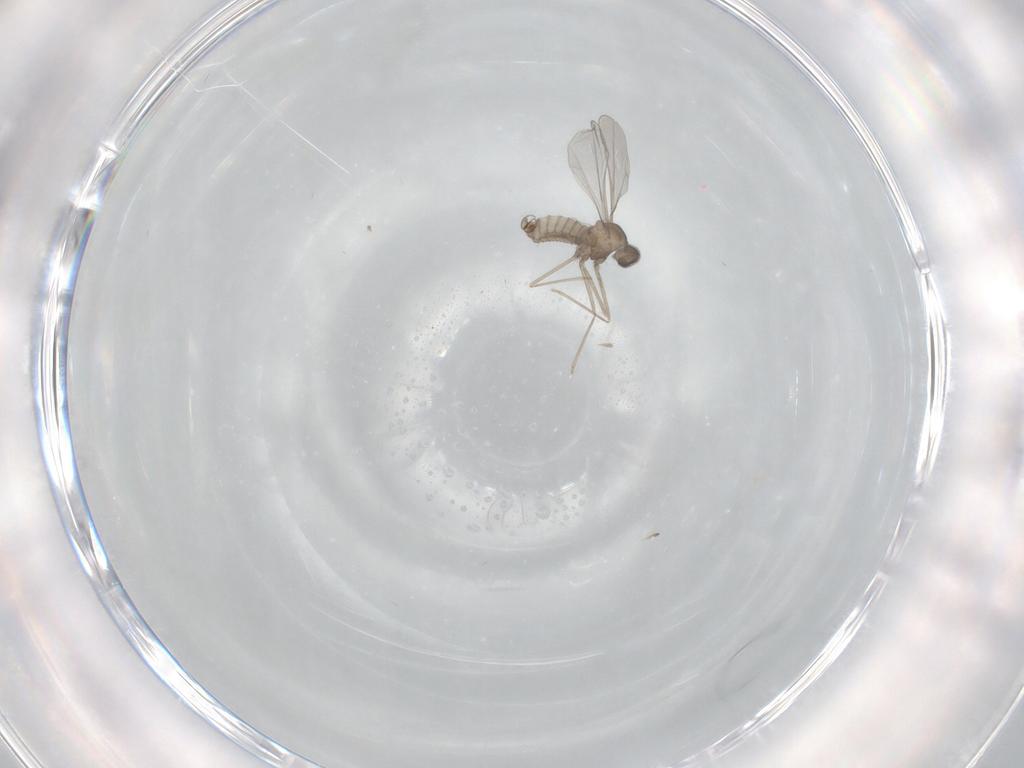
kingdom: Animalia
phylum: Arthropoda
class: Insecta
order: Diptera
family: Cecidomyiidae
